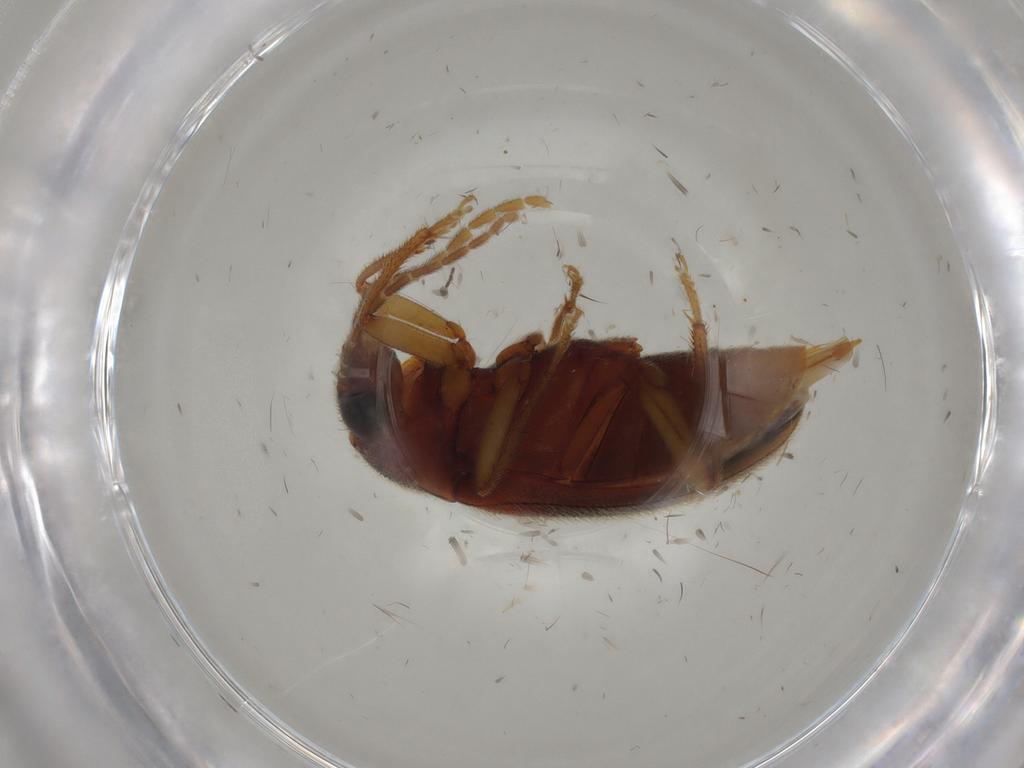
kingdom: Animalia
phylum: Arthropoda
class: Insecta
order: Coleoptera
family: Ptilodactylidae
